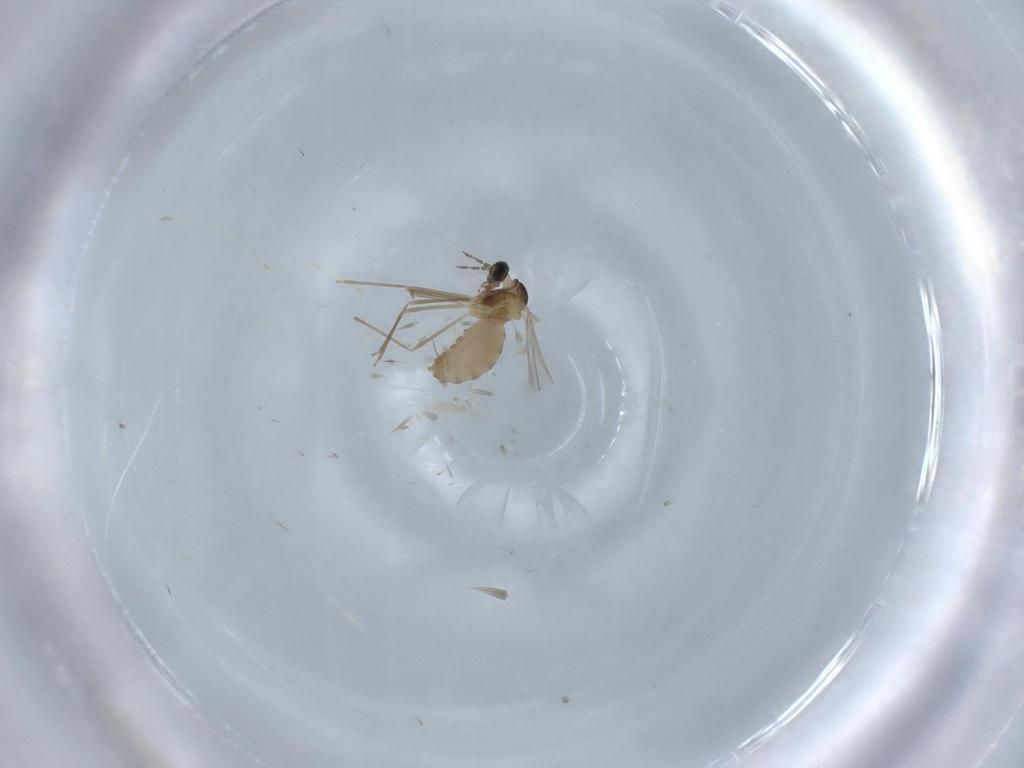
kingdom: Animalia
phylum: Arthropoda
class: Insecta
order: Diptera
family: Cecidomyiidae
